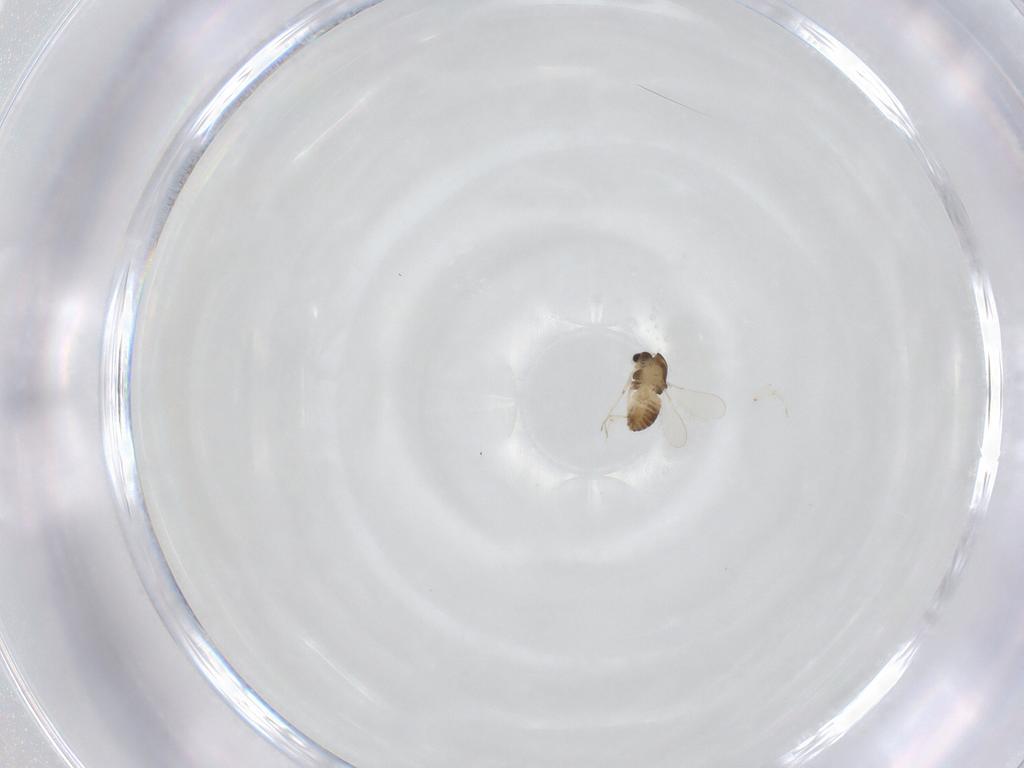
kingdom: Animalia
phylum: Arthropoda
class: Insecta
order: Diptera
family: Chironomidae
